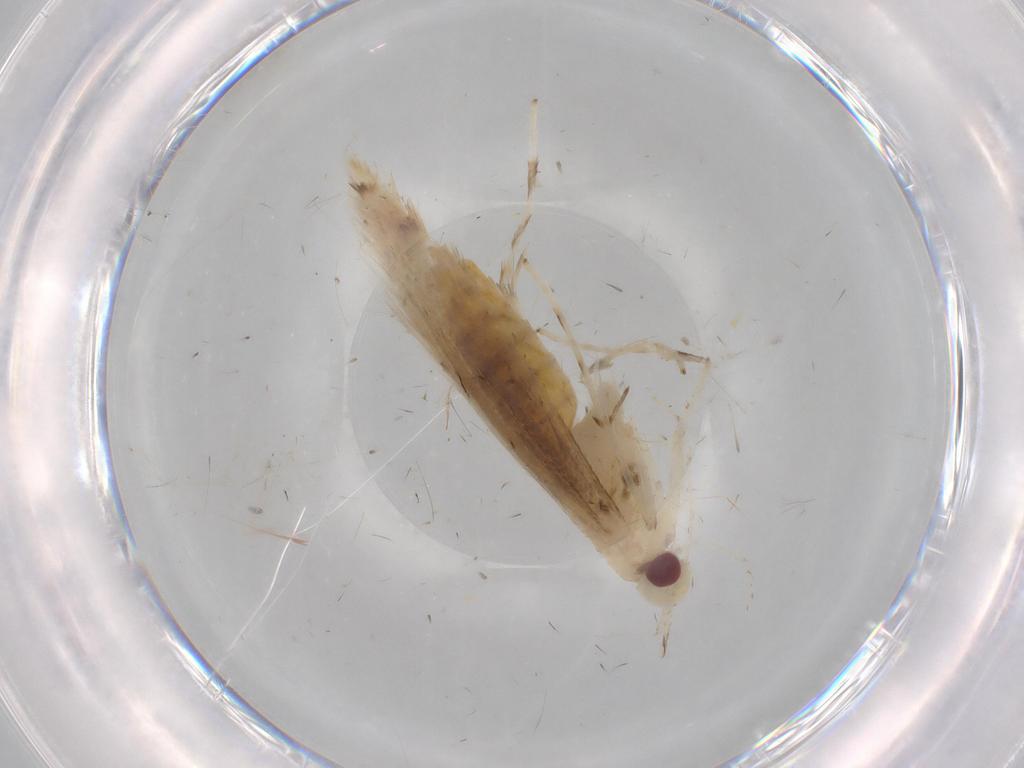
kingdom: Animalia
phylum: Arthropoda
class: Insecta
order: Lepidoptera
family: Gracillariidae
